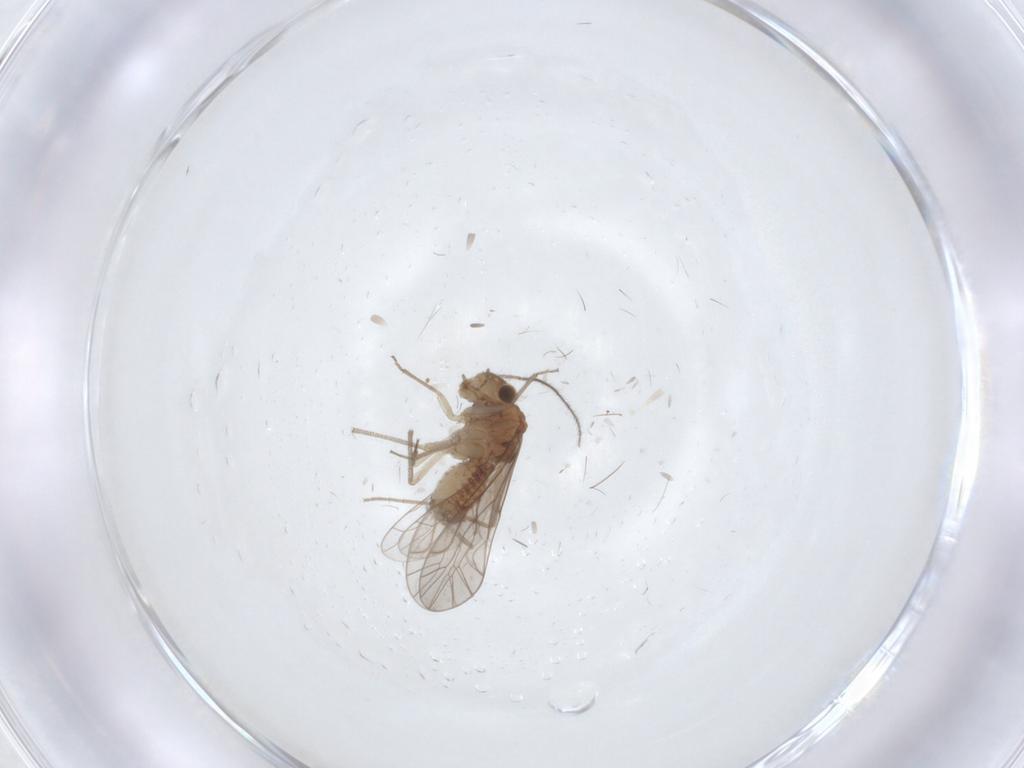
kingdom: Animalia
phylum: Arthropoda
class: Insecta
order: Psocodea
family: Lachesillidae
